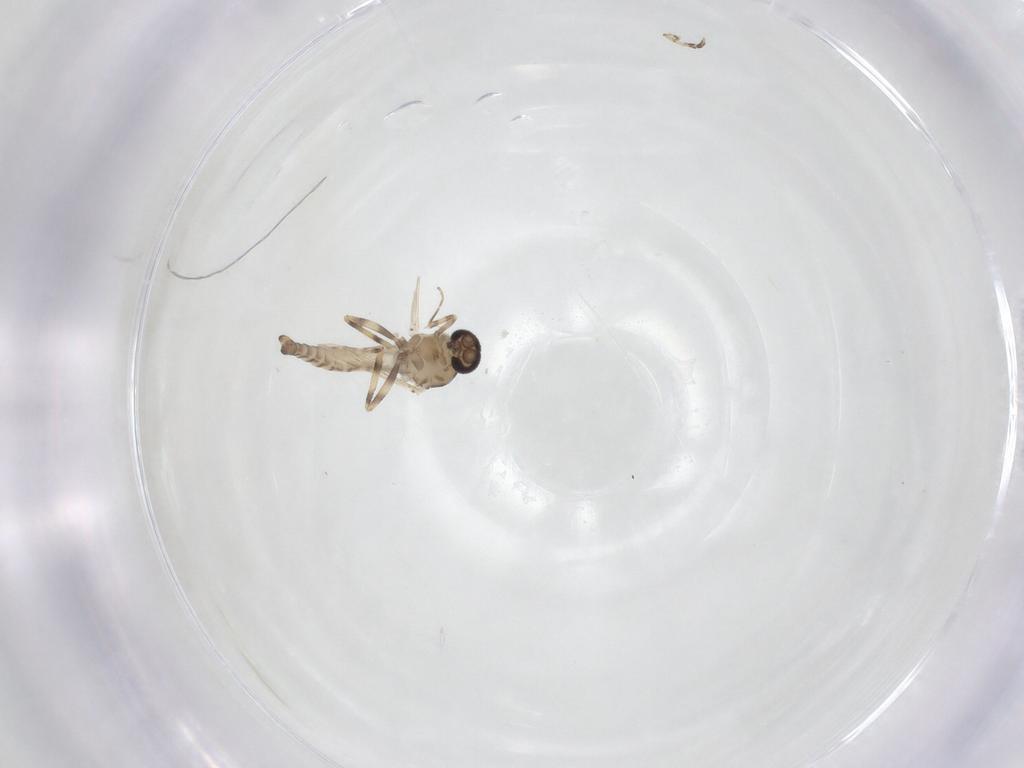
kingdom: Animalia
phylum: Arthropoda
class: Insecta
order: Diptera
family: Ceratopogonidae
